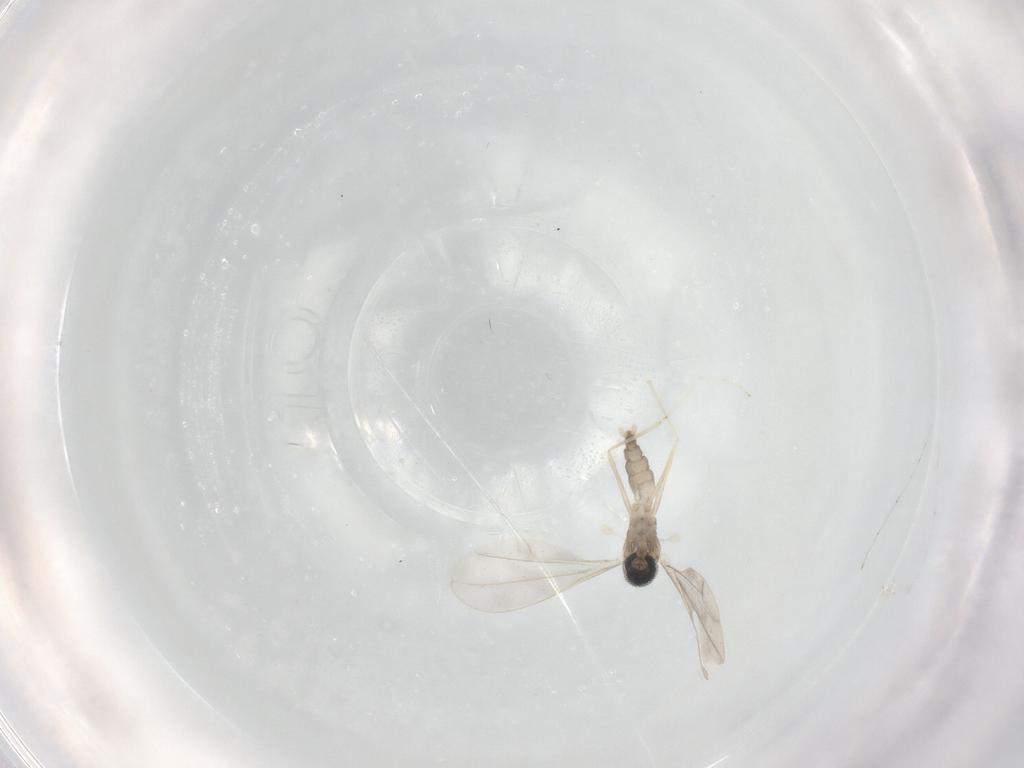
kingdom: Animalia
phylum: Arthropoda
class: Insecta
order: Diptera
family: Cecidomyiidae
